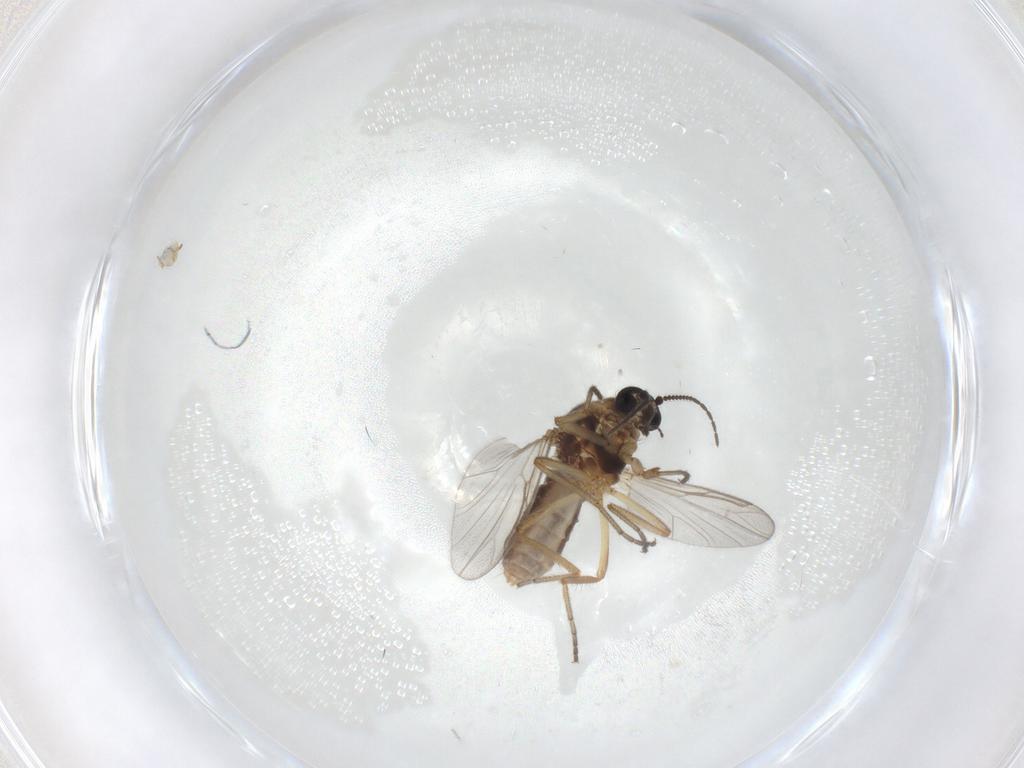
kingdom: Animalia
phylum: Arthropoda
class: Insecta
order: Diptera
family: Ceratopogonidae
